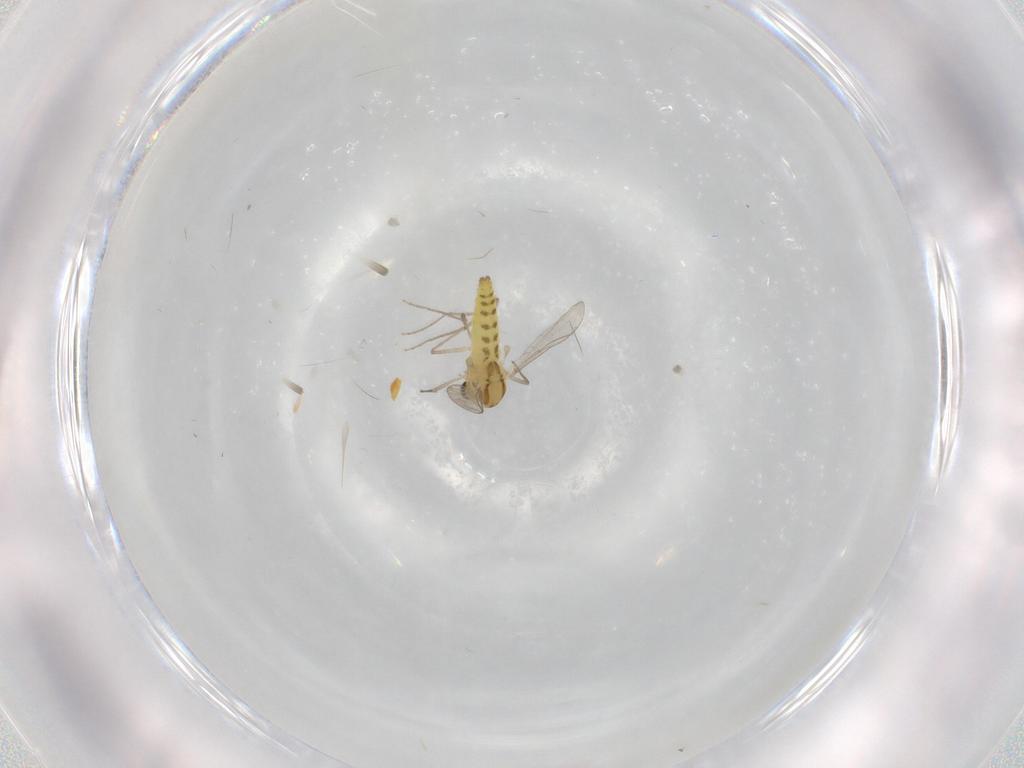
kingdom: Animalia
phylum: Arthropoda
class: Insecta
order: Diptera
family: Chironomidae
